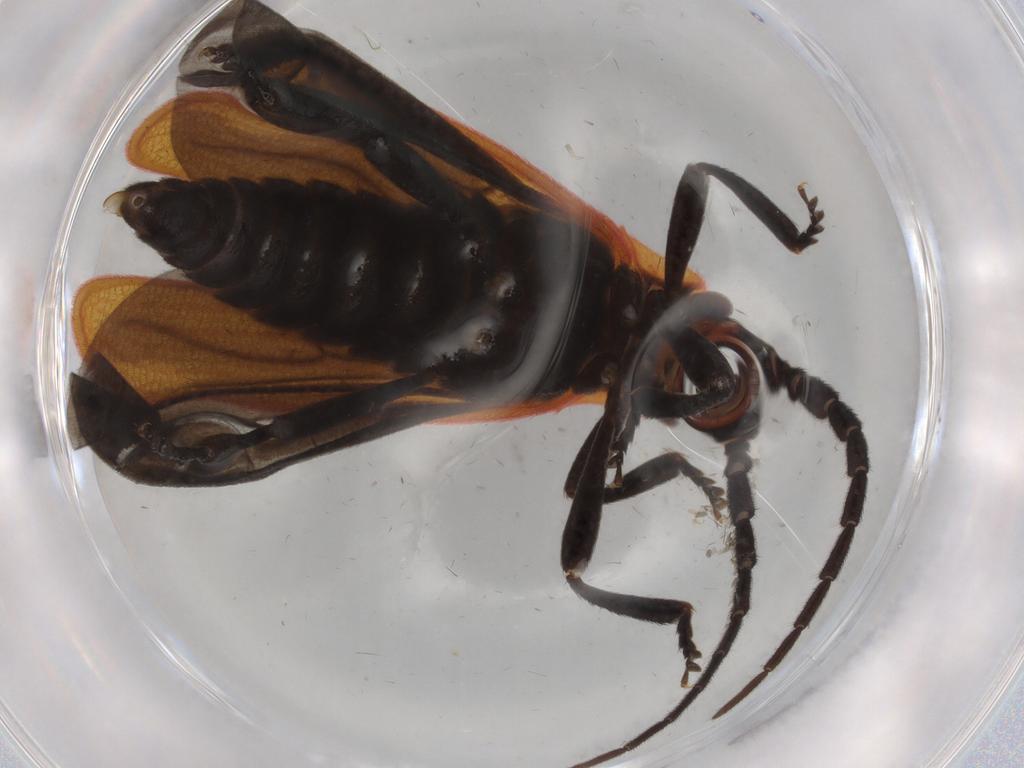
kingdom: Animalia
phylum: Arthropoda
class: Insecta
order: Coleoptera
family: Lycidae
